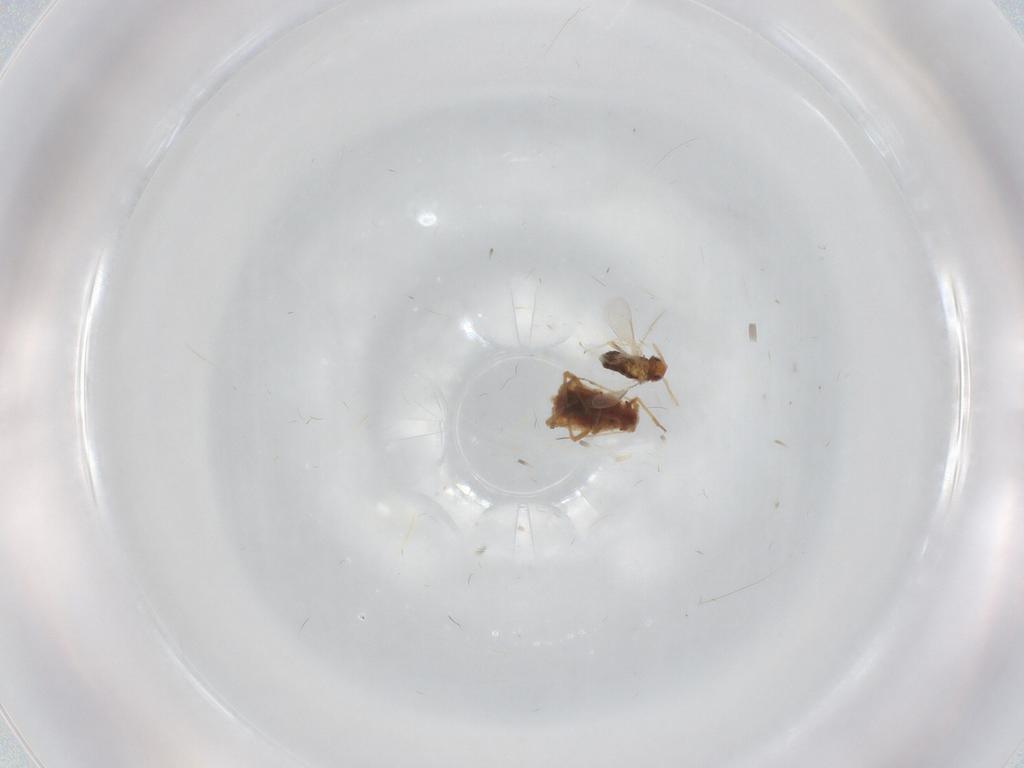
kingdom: Animalia
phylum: Arthropoda
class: Insecta
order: Hymenoptera
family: Aphelinidae
